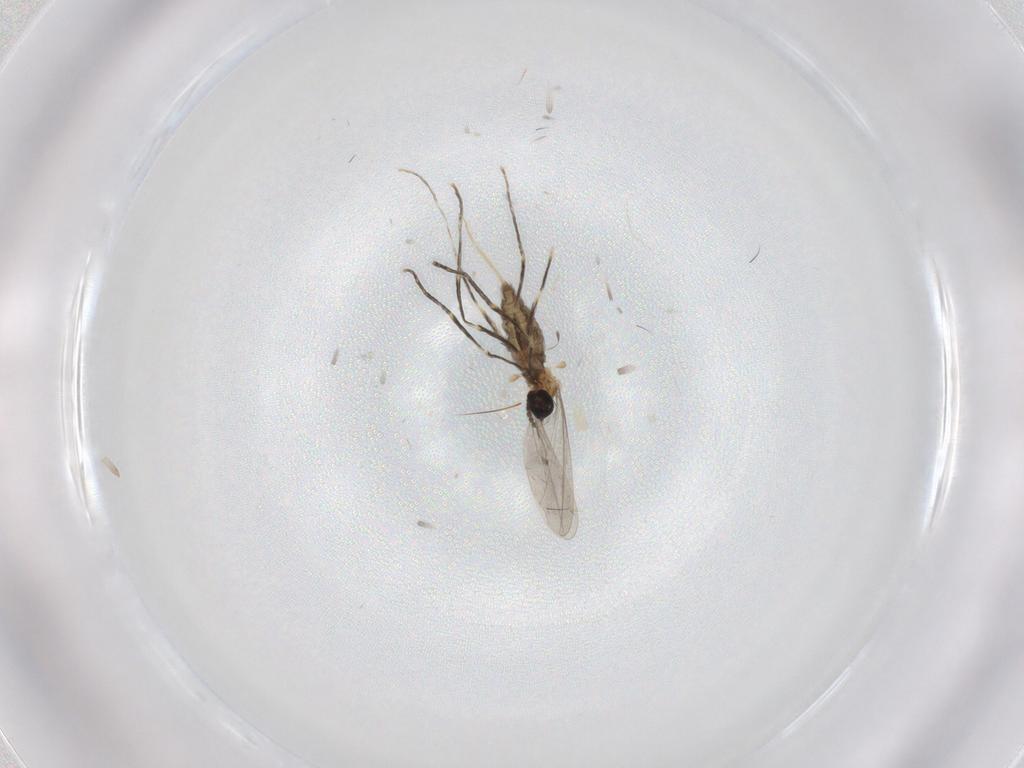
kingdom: Animalia
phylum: Arthropoda
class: Insecta
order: Diptera
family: Cecidomyiidae
